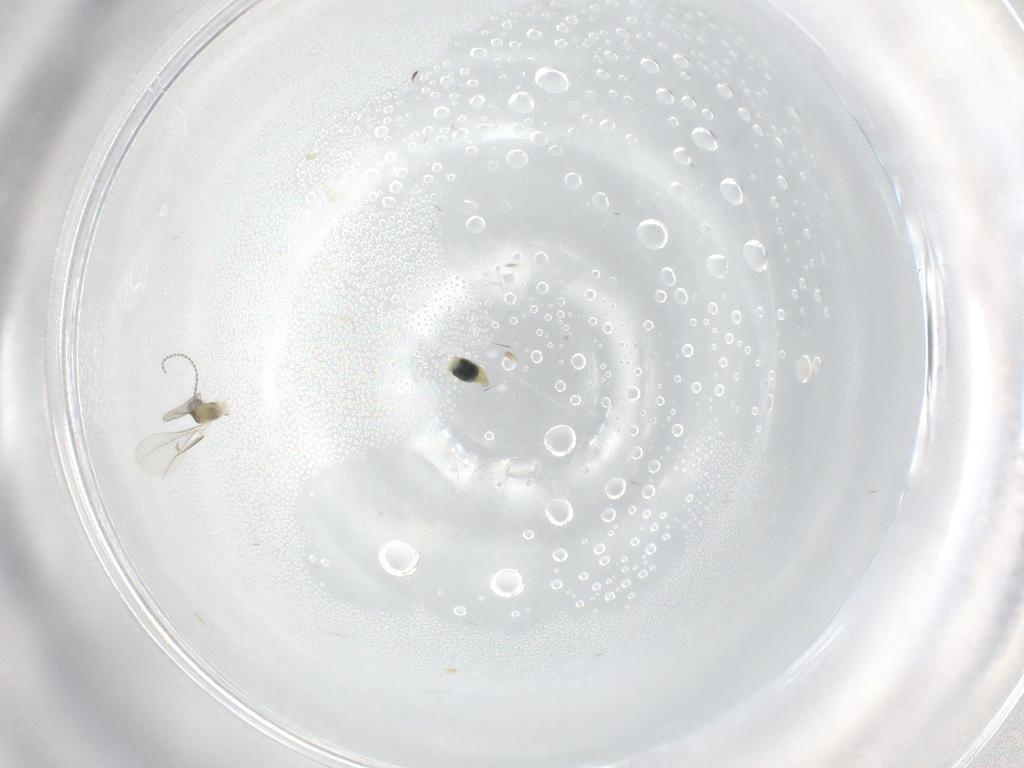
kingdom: Animalia
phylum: Arthropoda
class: Insecta
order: Diptera
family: Cecidomyiidae
